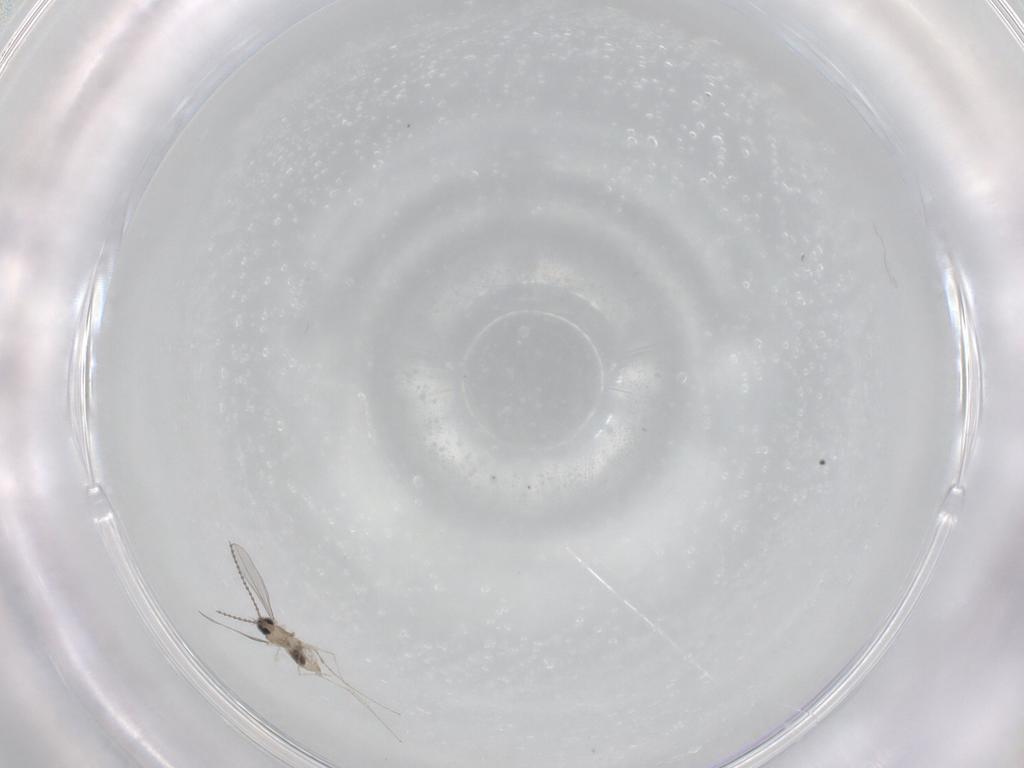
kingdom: Animalia
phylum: Arthropoda
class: Insecta
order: Diptera
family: Cecidomyiidae
